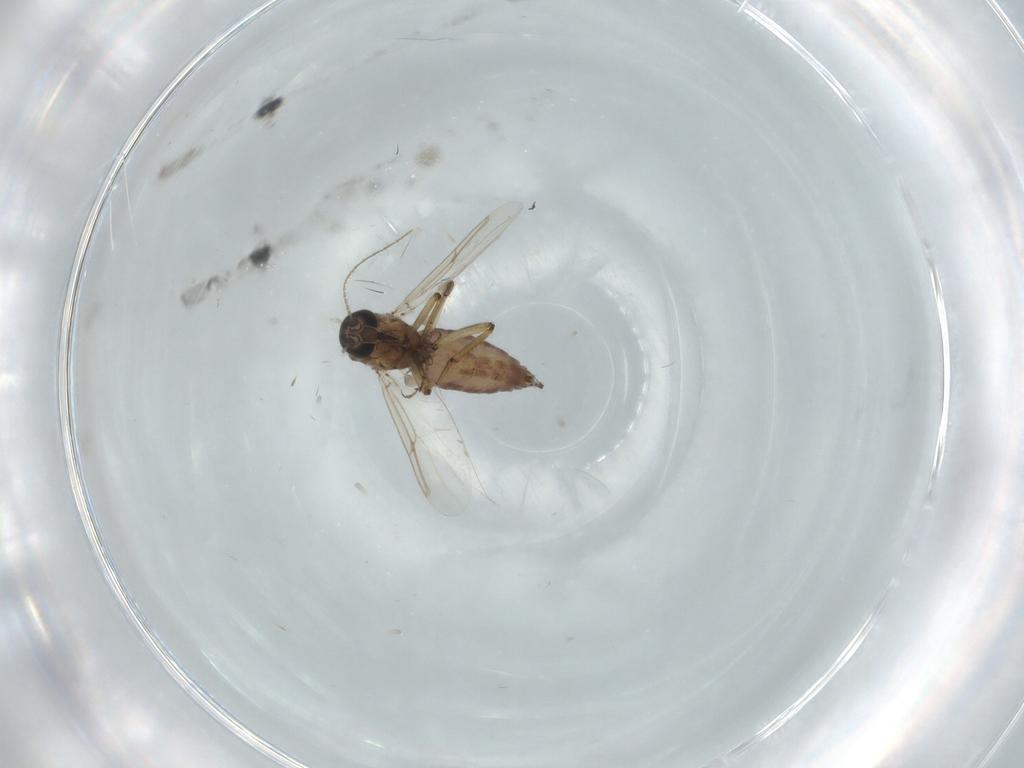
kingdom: Animalia
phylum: Arthropoda
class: Insecta
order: Diptera
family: Ceratopogonidae
